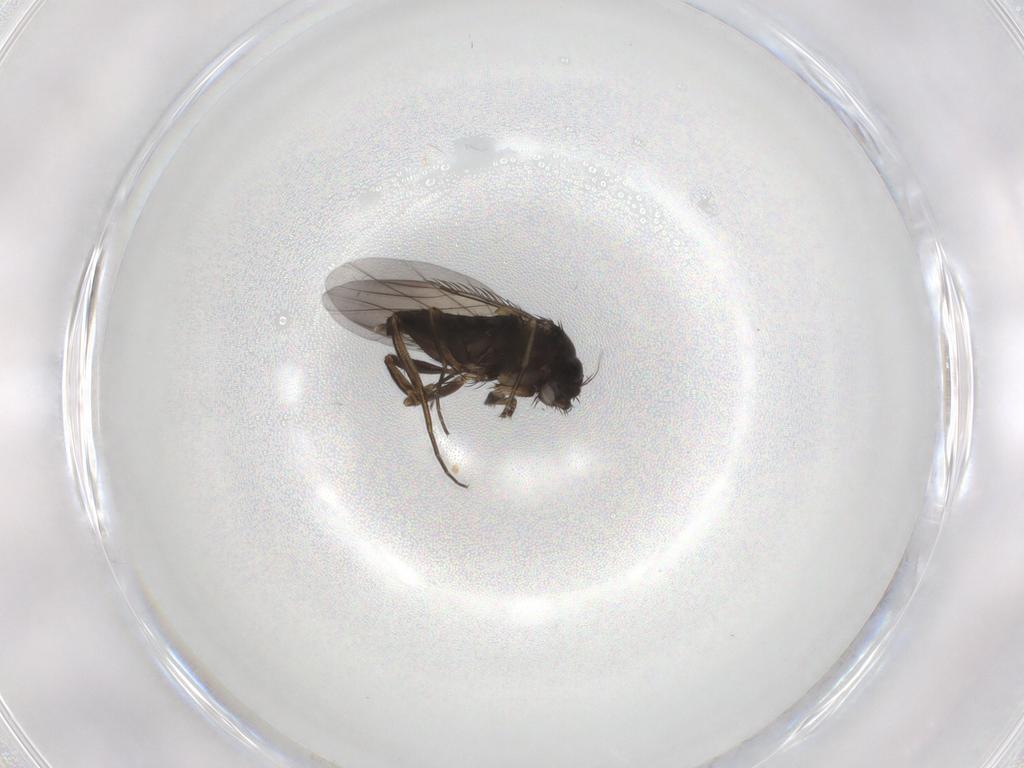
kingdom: Animalia
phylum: Arthropoda
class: Insecta
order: Diptera
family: Phoridae
